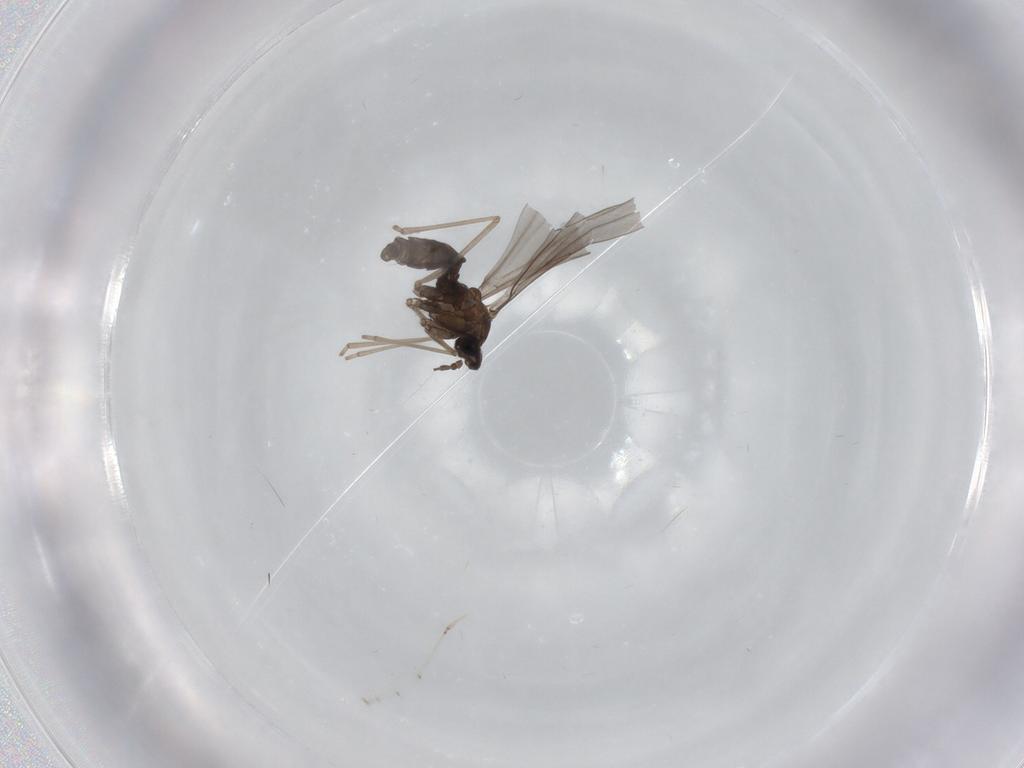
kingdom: Animalia
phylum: Arthropoda
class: Insecta
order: Diptera
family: Cecidomyiidae
